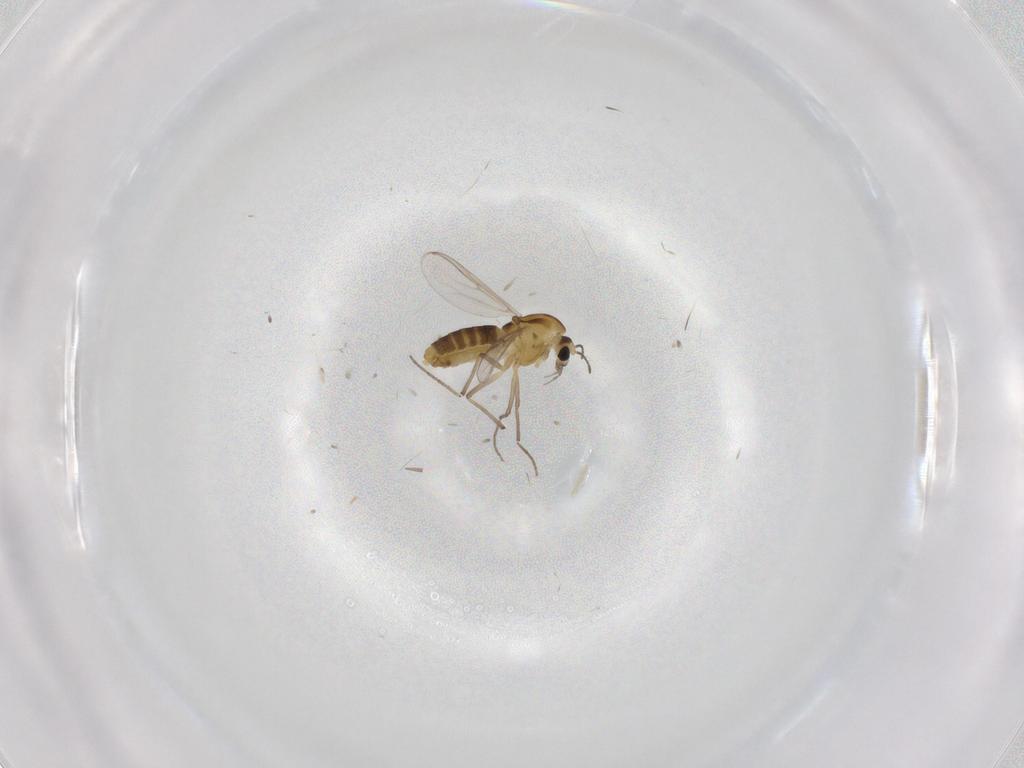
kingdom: Animalia
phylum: Arthropoda
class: Insecta
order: Diptera
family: Chironomidae
